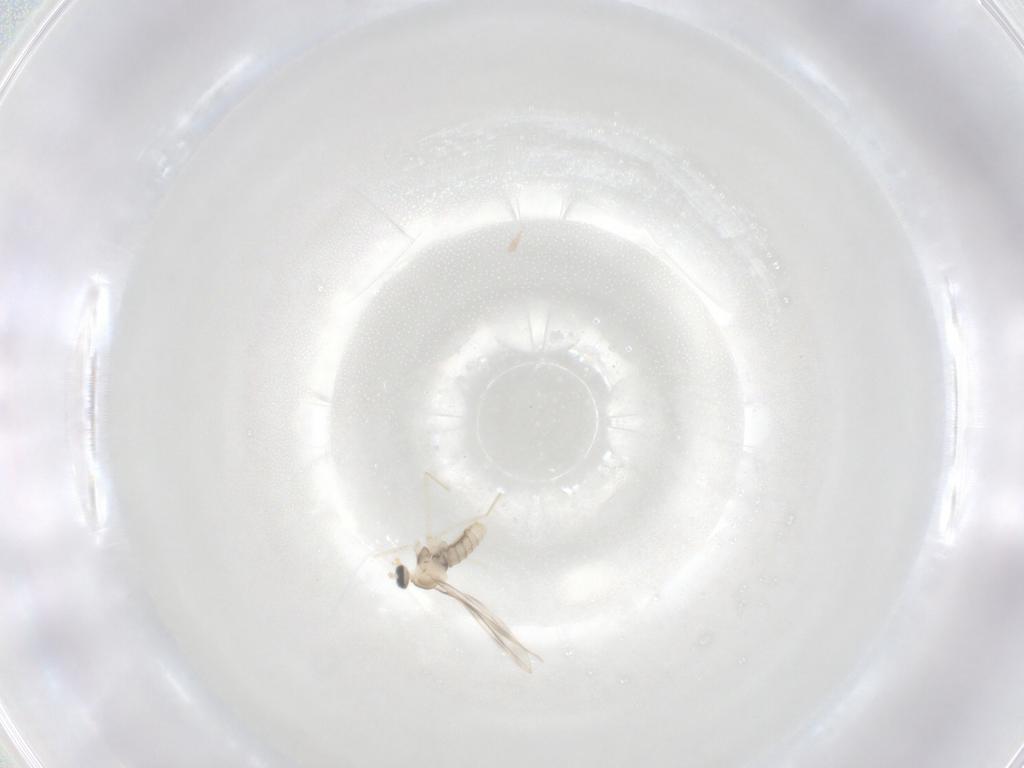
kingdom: Animalia
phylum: Arthropoda
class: Insecta
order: Diptera
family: Cecidomyiidae
